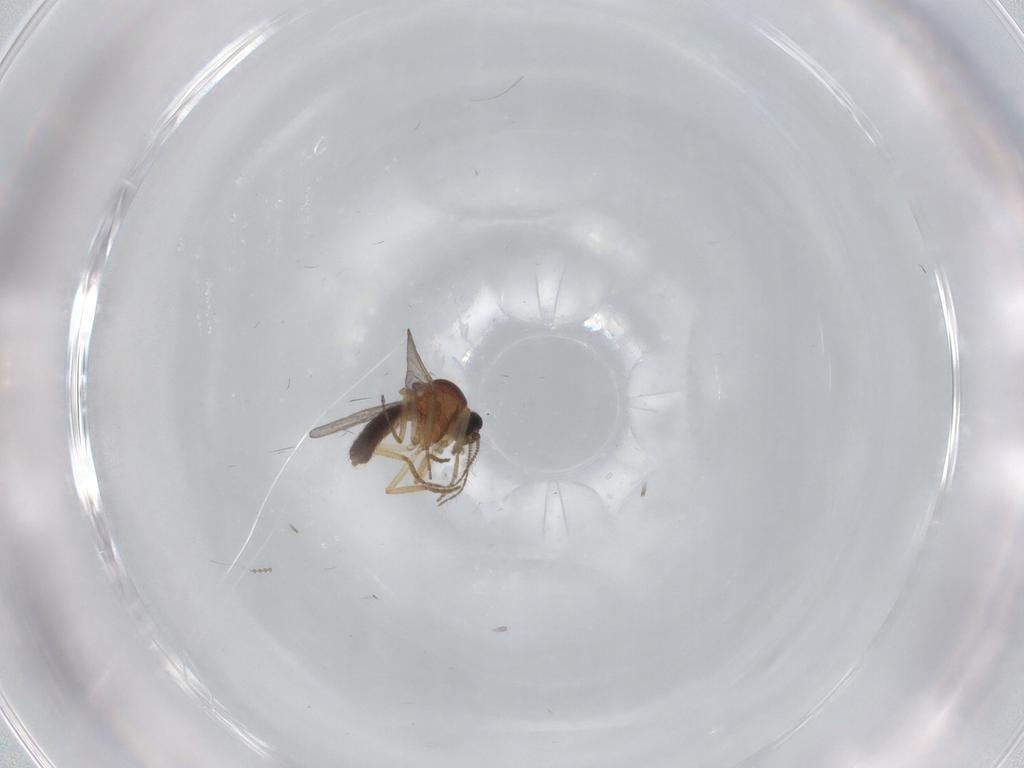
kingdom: Animalia
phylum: Arthropoda
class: Insecta
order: Diptera
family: Ceratopogonidae
